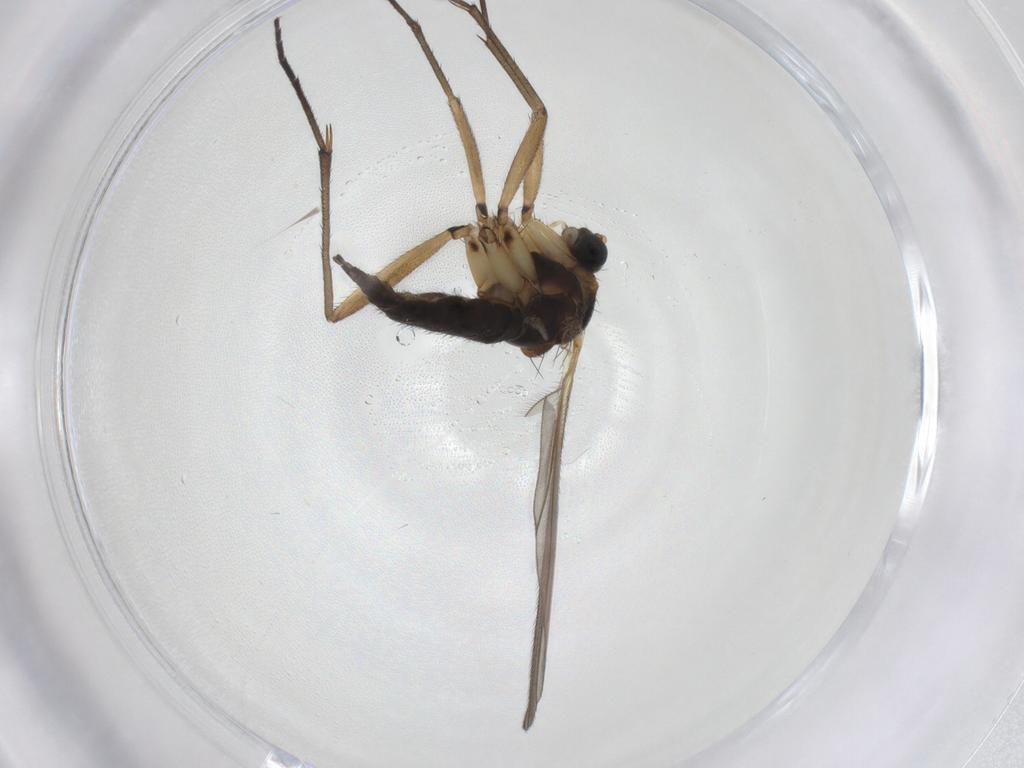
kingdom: Animalia
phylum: Arthropoda
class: Insecta
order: Diptera
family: Sciaridae
